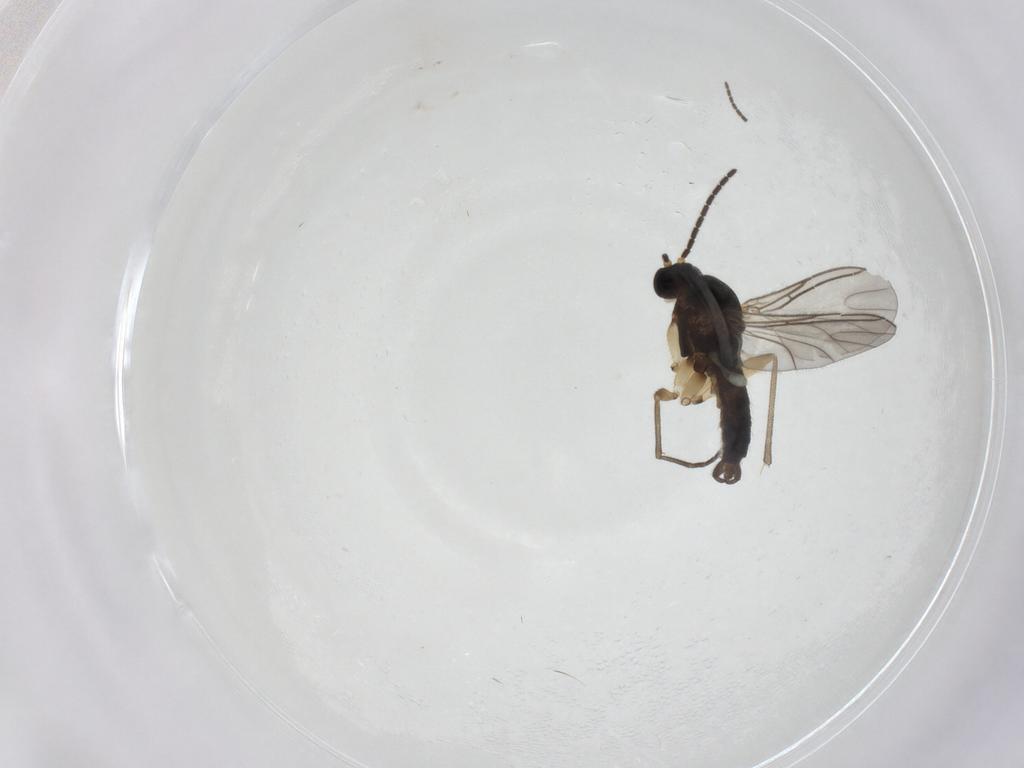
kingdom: Animalia
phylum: Arthropoda
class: Insecta
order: Diptera
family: Sciaridae
